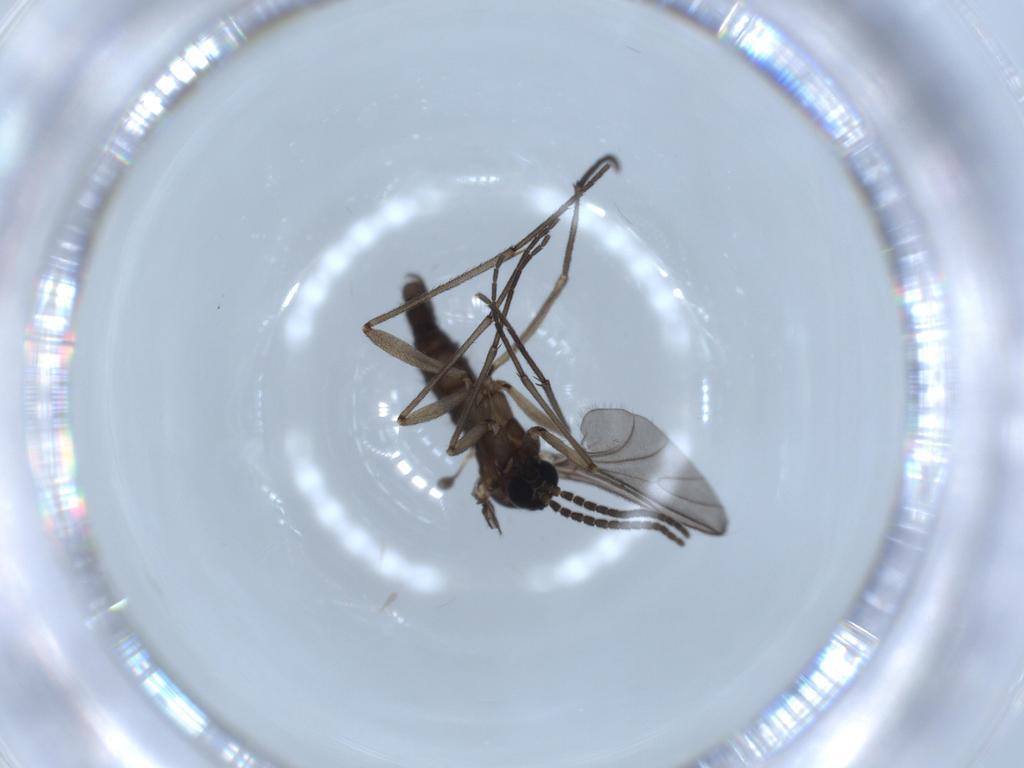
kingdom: Animalia
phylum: Arthropoda
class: Insecta
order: Diptera
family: Sciaridae
